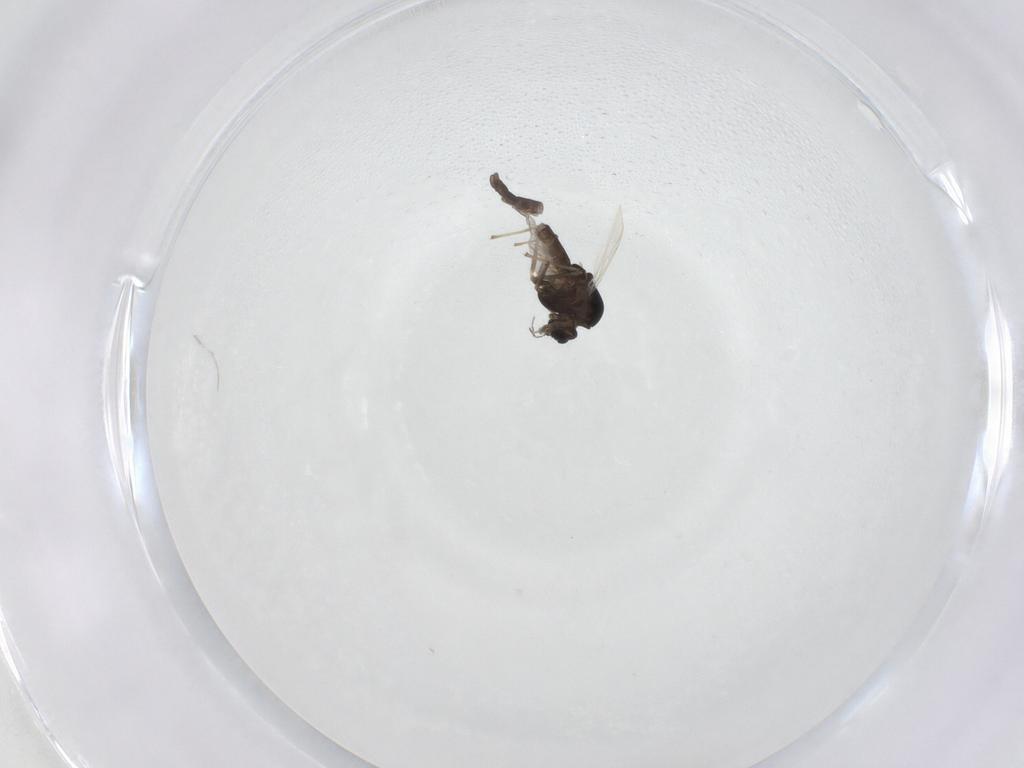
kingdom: Animalia
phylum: Arthropoda
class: Insecta
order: Diptera
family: Chironomidae
